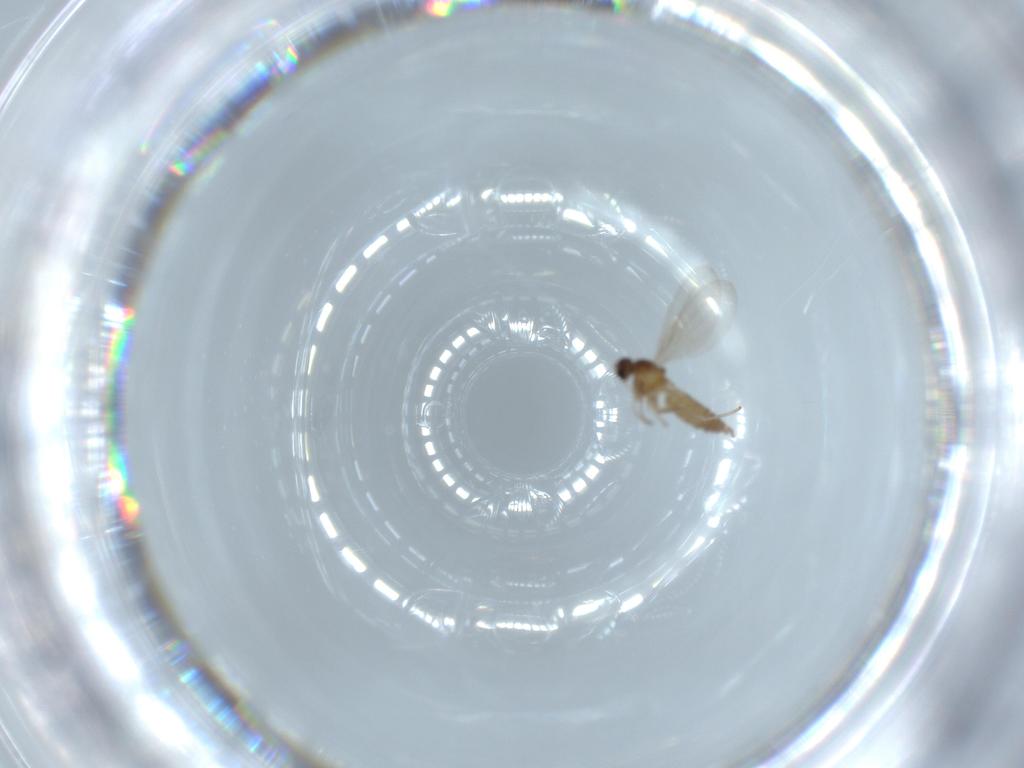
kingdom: Animalia
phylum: Arthropoda
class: Insecta
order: Diptera
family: Cecidomyiidae
